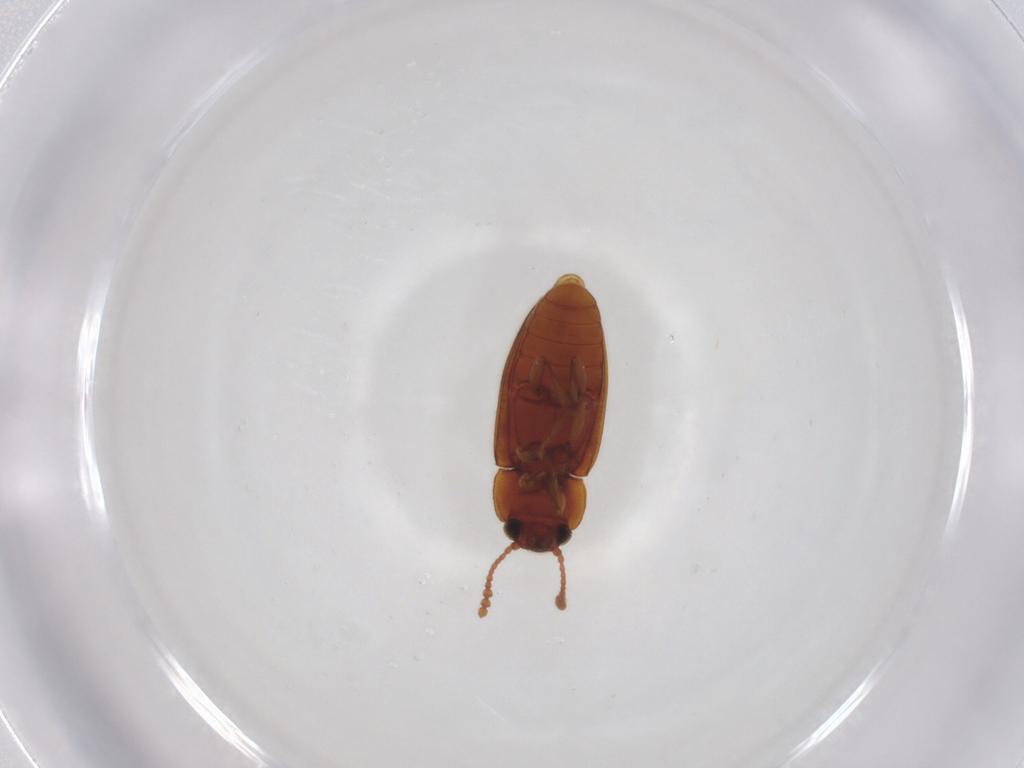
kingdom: Animalia
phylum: Arthropoda
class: Insecta
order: Coleoptera
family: Erotylidae
